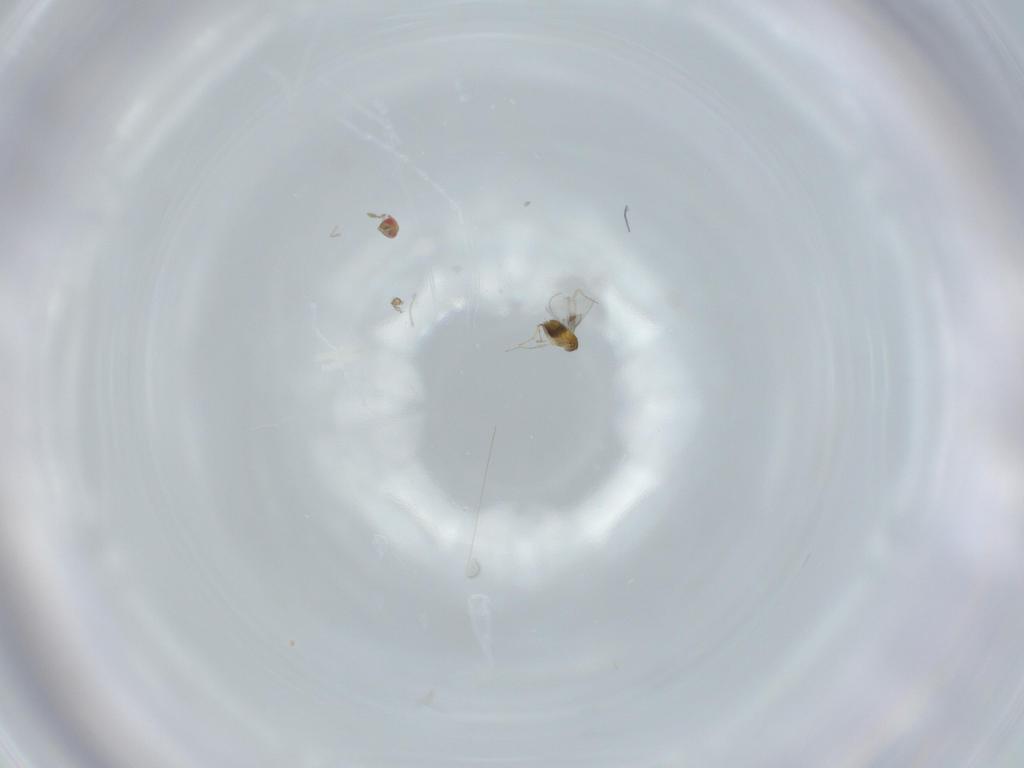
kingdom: Animalia
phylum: Arthropoda
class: Insecta
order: Hymenoptera
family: Scelionidae
